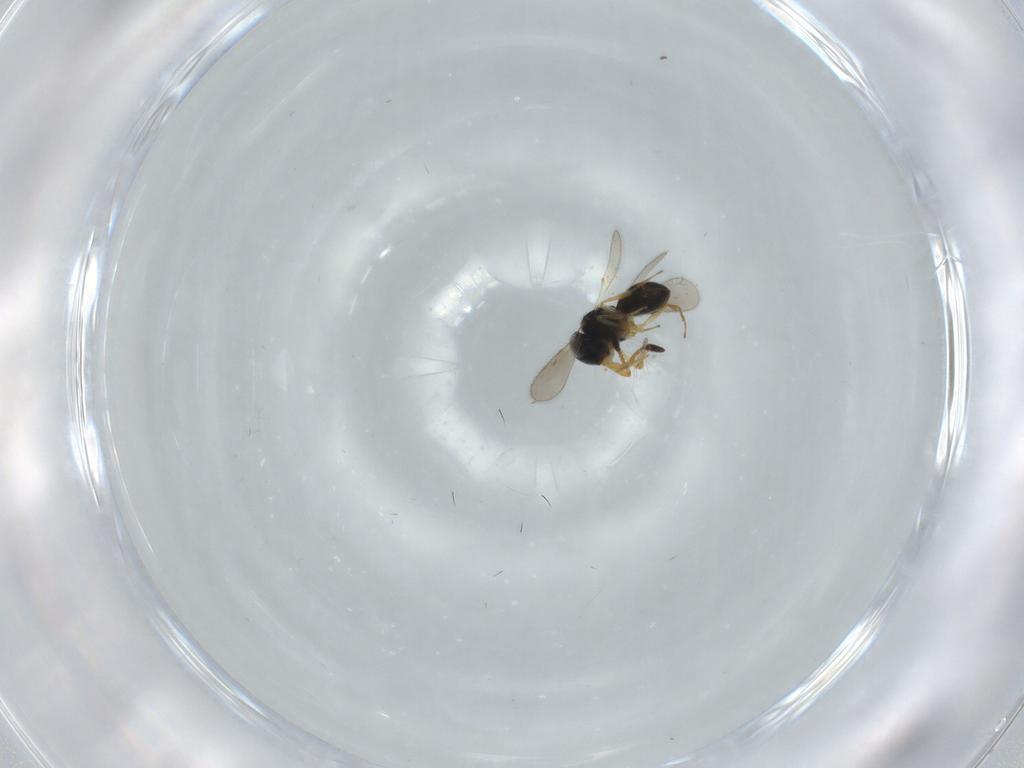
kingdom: Animalia
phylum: Arthropoda
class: Insecta
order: Hymenoptera
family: Scelionidae
